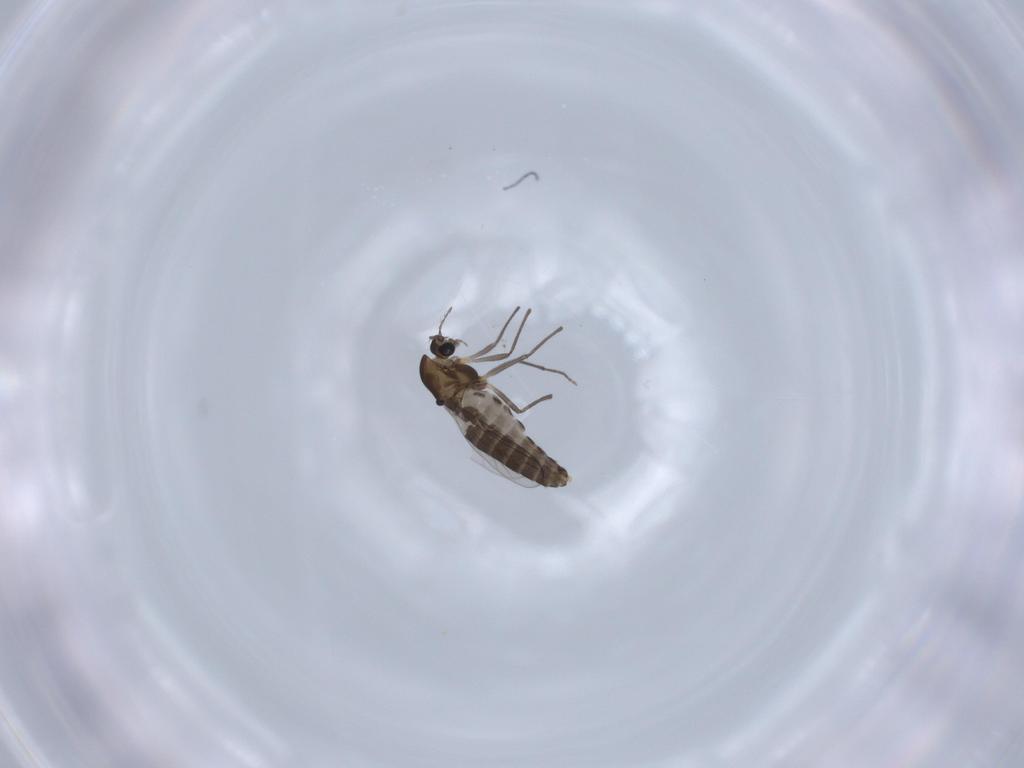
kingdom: Animalia
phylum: Arthropoda
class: Insecta
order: Diptera
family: Chironomidae
